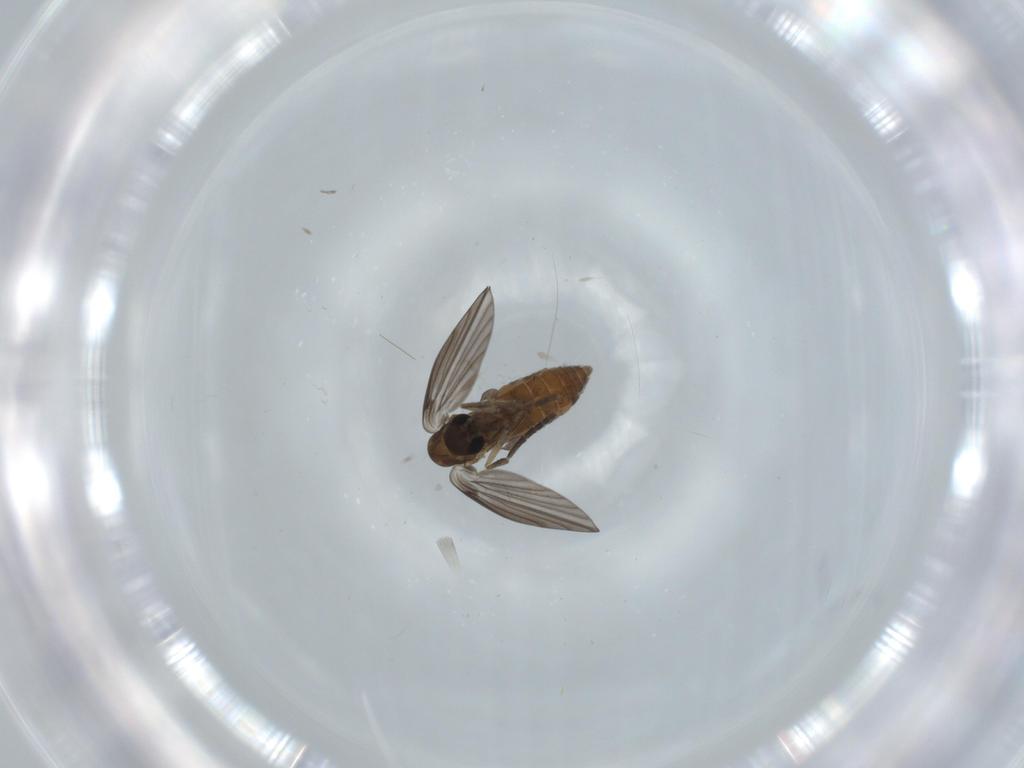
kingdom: Animalia
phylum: Arthropoda
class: Insecta
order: Diptera
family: Psychodidae
